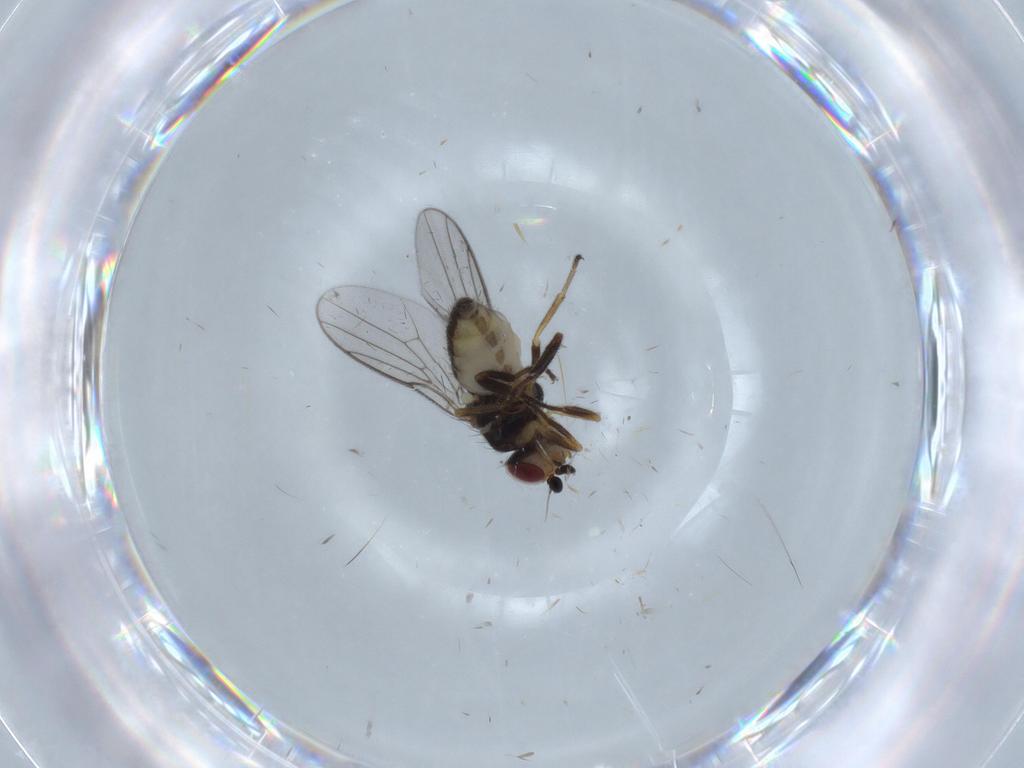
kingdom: Animalia
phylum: Arthropoda
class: Insecta
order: Diptera
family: Chloropidae
